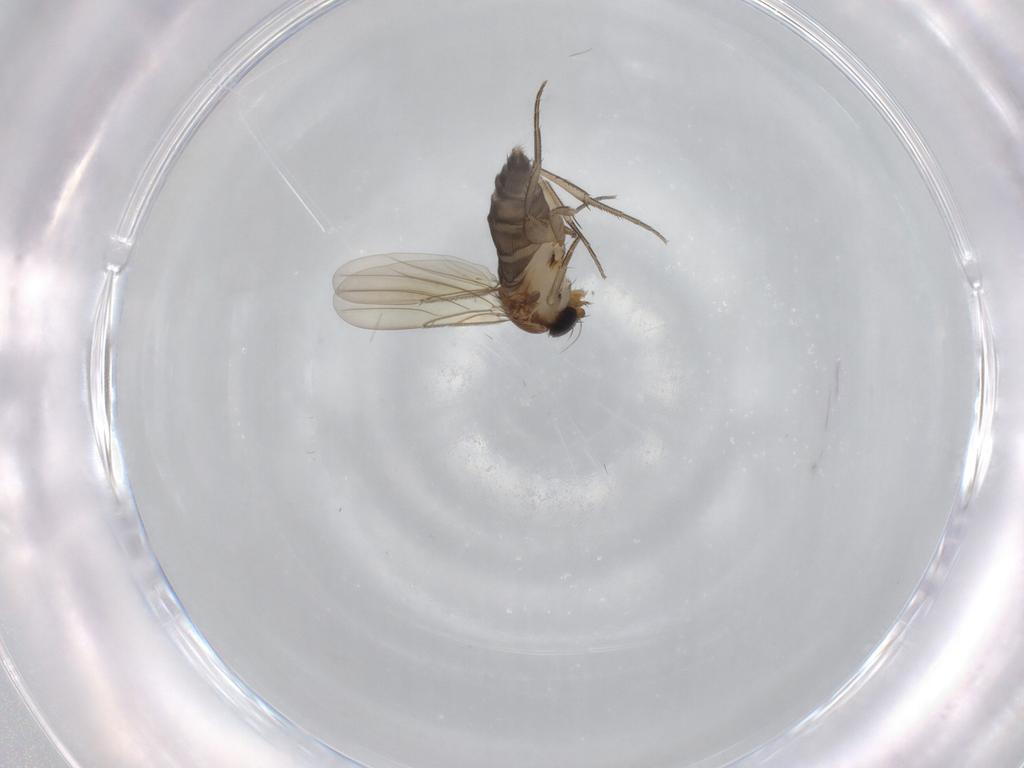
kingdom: Animalia
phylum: Arthropoda
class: Insecta
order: Diptera
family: Phoridae
